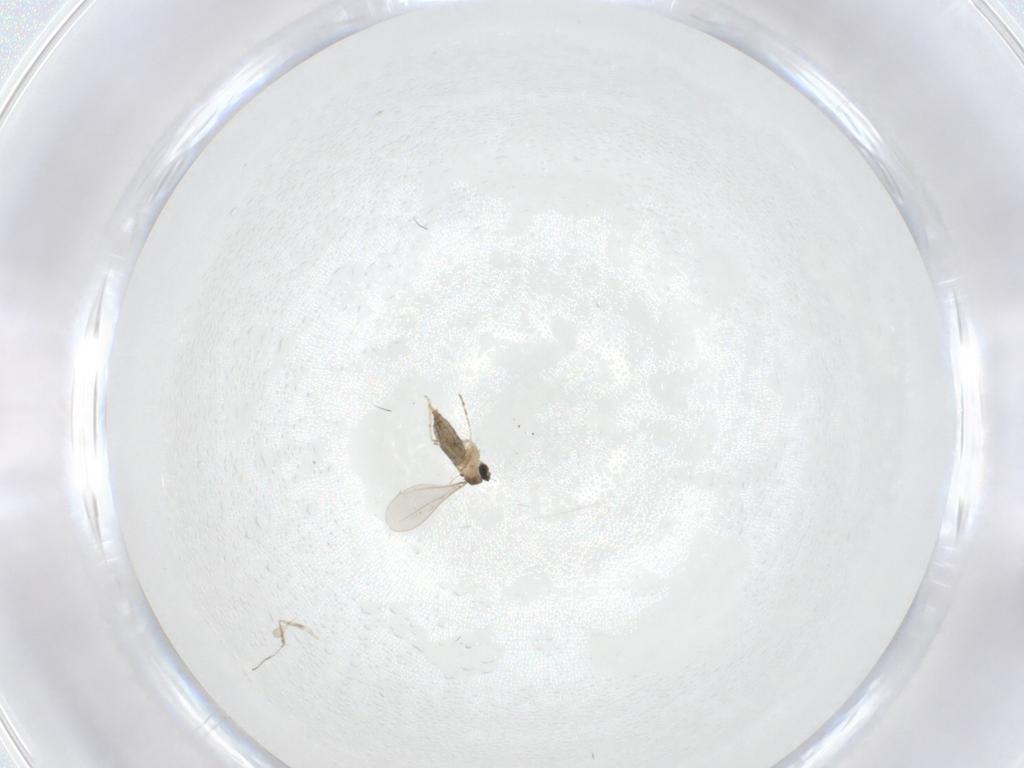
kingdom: Animalia
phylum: Arthropoda
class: Insecta
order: Diptera
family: Cecidomyiidae
